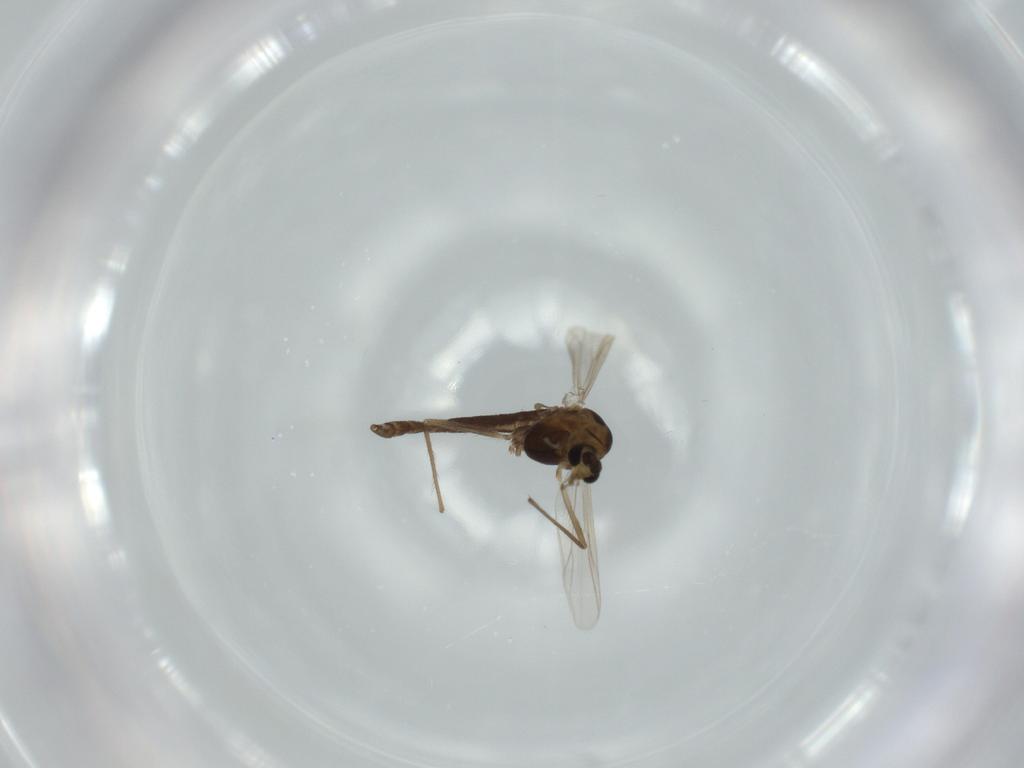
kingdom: Animalia
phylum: Arthropoda
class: Insecta
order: Diptera
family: Chironomidae
